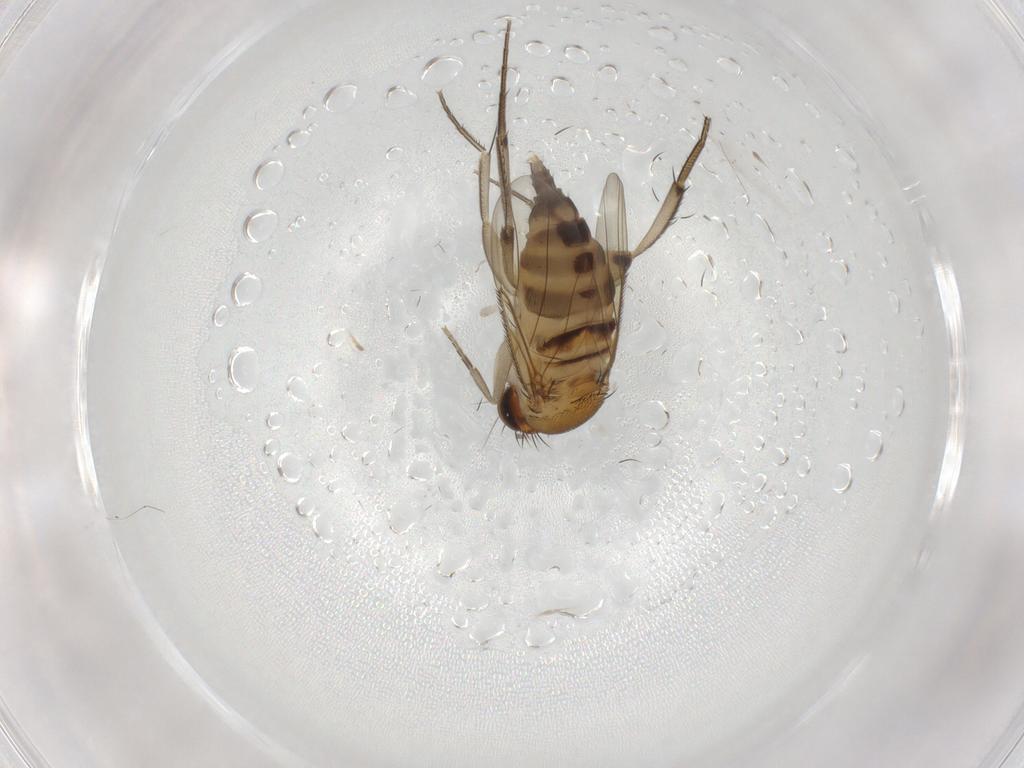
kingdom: Animalia
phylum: Arthropoda
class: Insecta
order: Diptera
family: Phoridae
